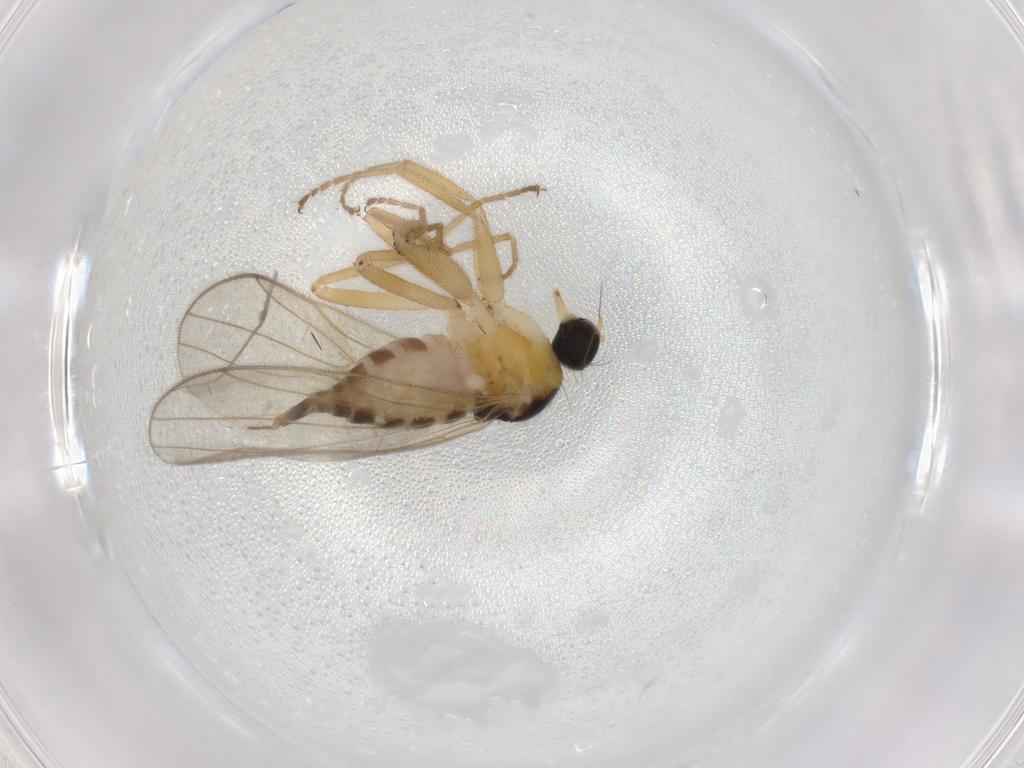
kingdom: Animalia
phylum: Arthropoda
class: Insecta
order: Diptera
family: Hybotidae
